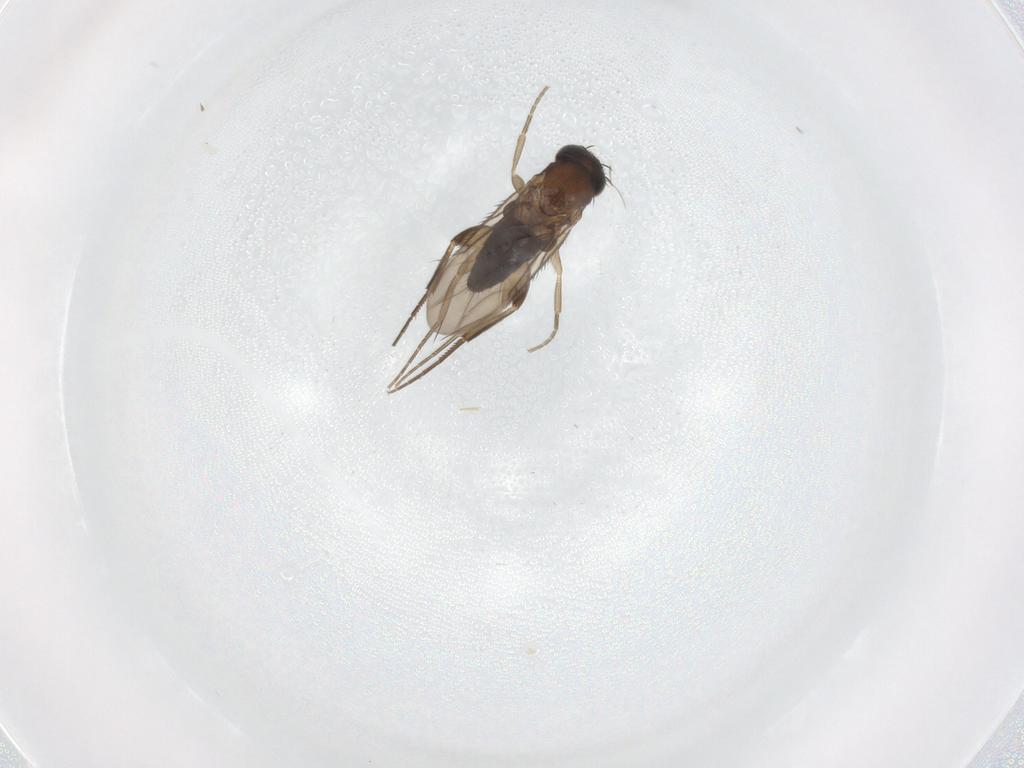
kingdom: Animalia
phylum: Arthropoda
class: Insecta
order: Diptera
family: Phoridae
